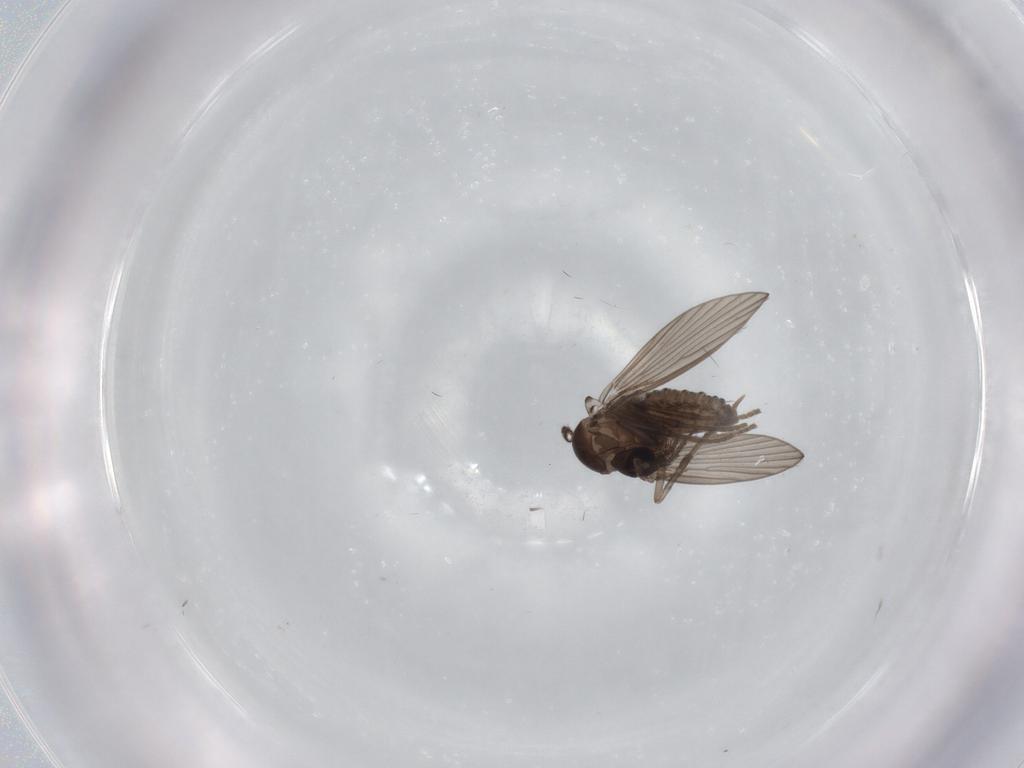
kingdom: Animalia
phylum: Arthropoda
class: Insecta
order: Diptera
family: Psychodidae
